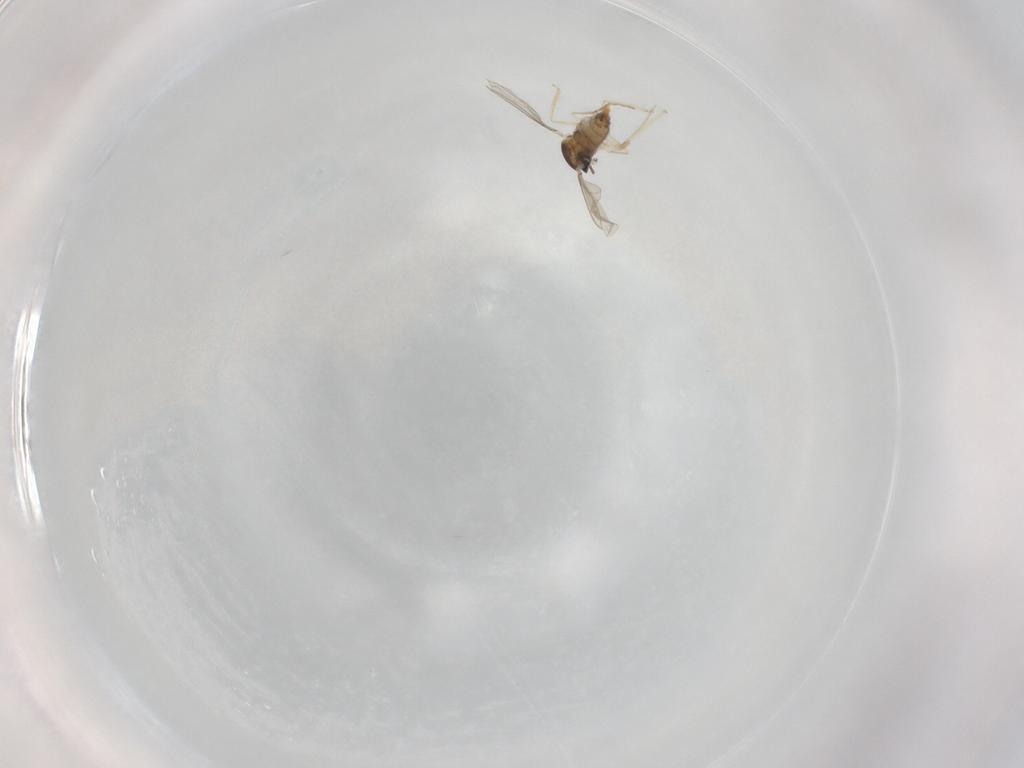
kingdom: Animalia
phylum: Arthropoda
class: Insecta
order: Diptera
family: Cecidomyiidae
